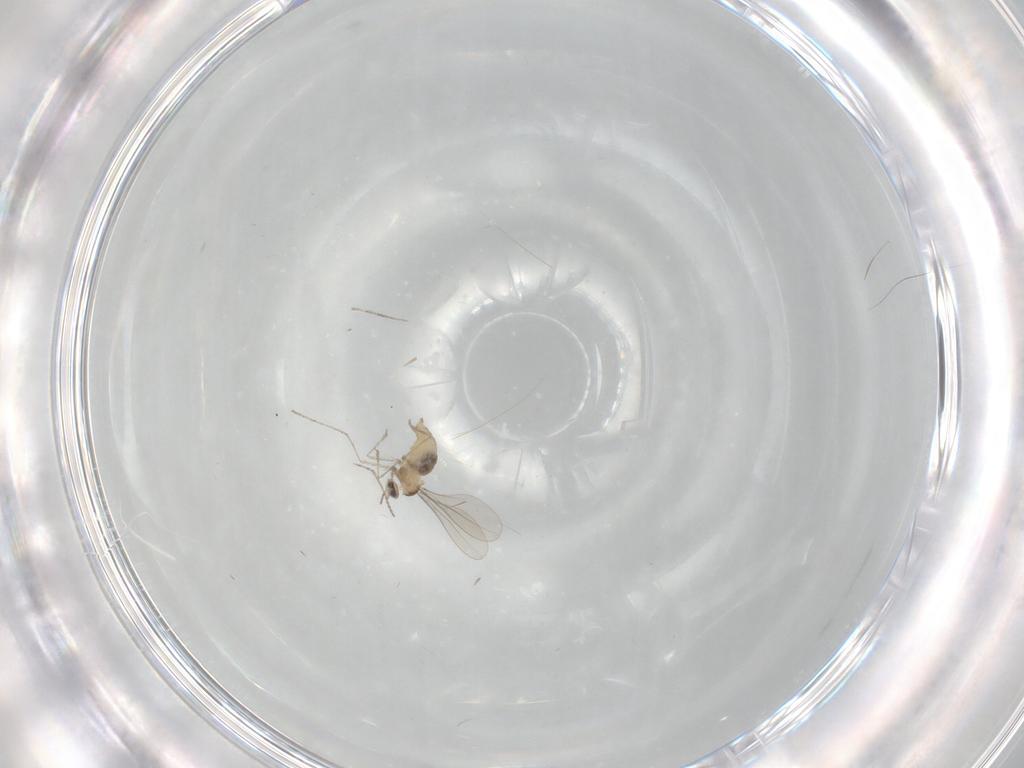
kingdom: Animalia
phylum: Arthropoda
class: Insecta
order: Diptera
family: Cecidomyiidae
